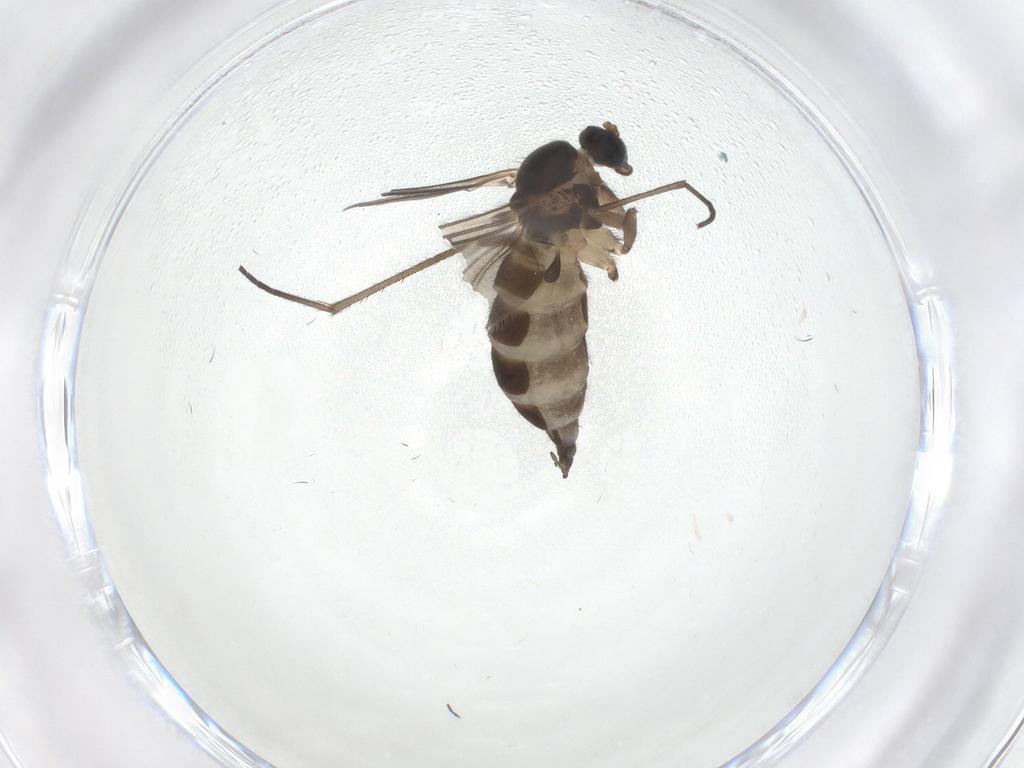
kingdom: Animalia
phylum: Arthropoda
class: Insecta
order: Diptera
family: Sciaridae
